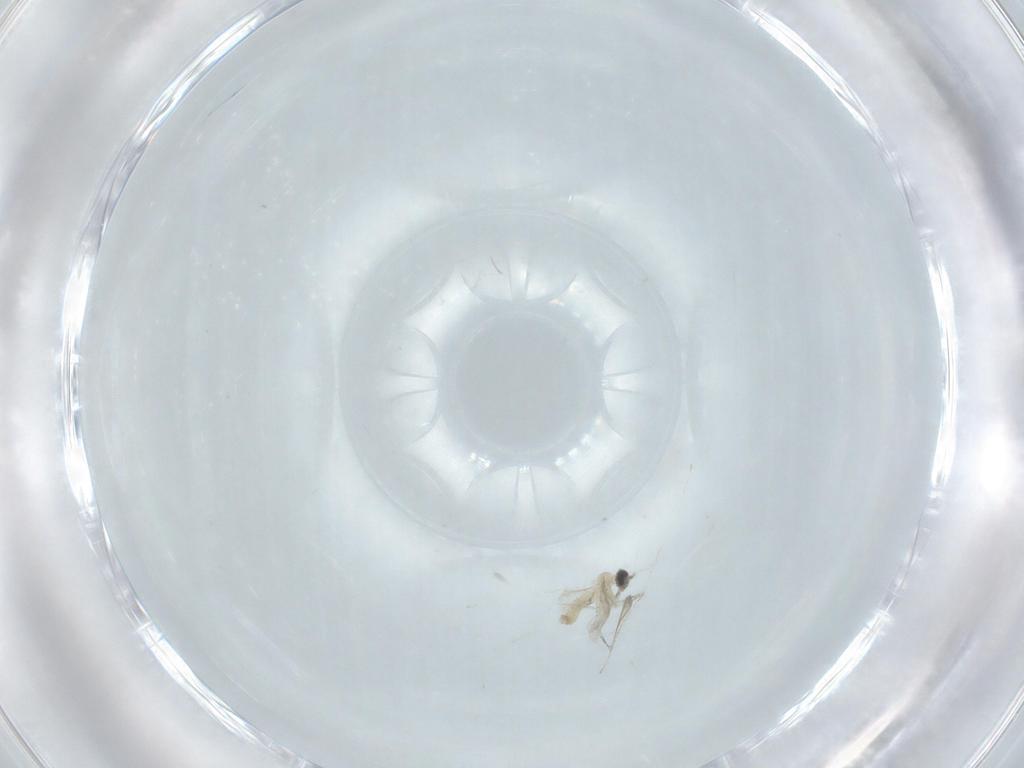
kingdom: Animalia
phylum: Arthropoda
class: Insecta
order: Diptera
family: Cecidomyiidae
